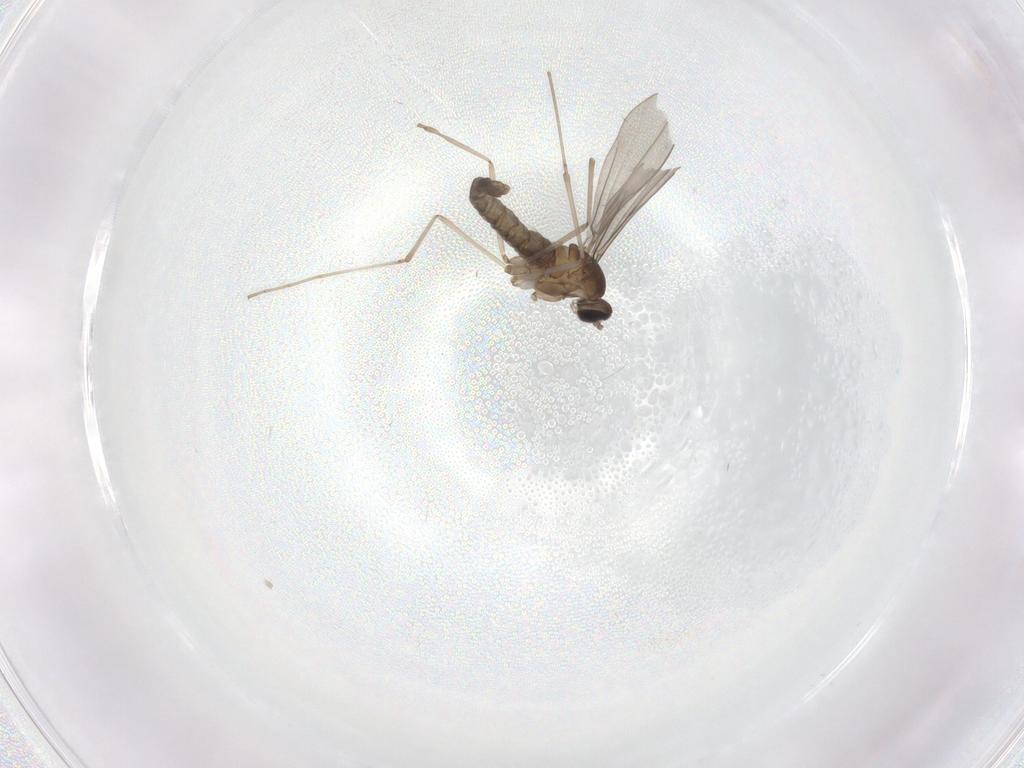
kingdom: Animalia
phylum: Arthropoda
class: Insecta
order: Diptera
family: Cecidomyiidae
